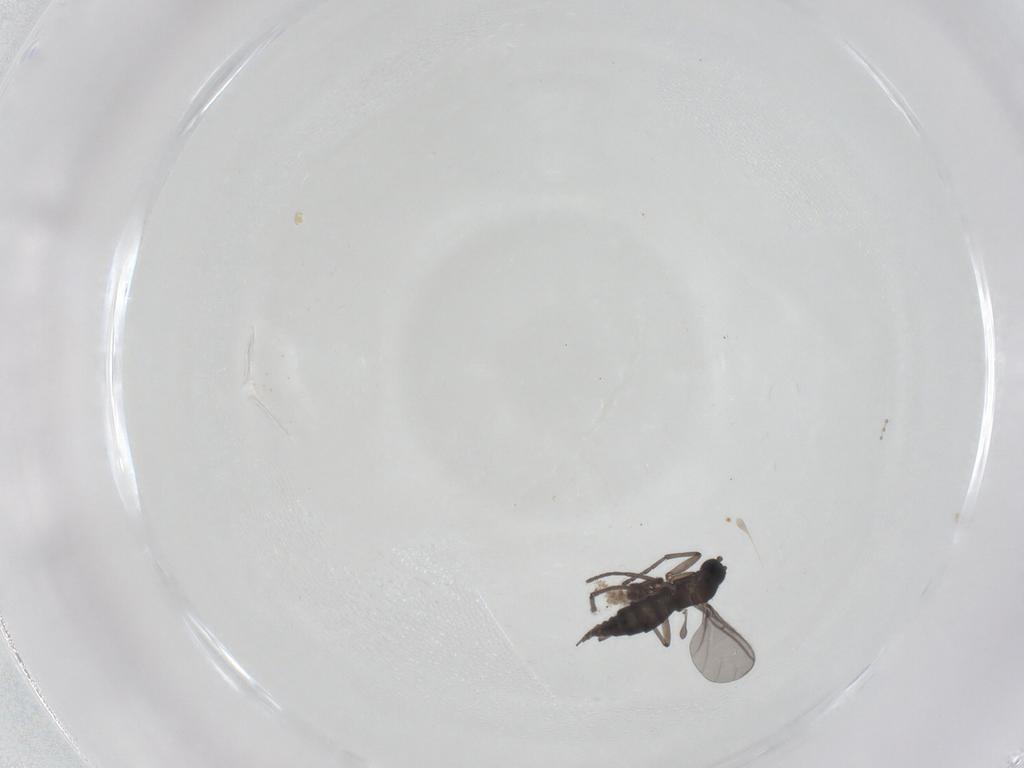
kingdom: Animalia
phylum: Arthropoda
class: Insecta
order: Diptera
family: Sciaridae
